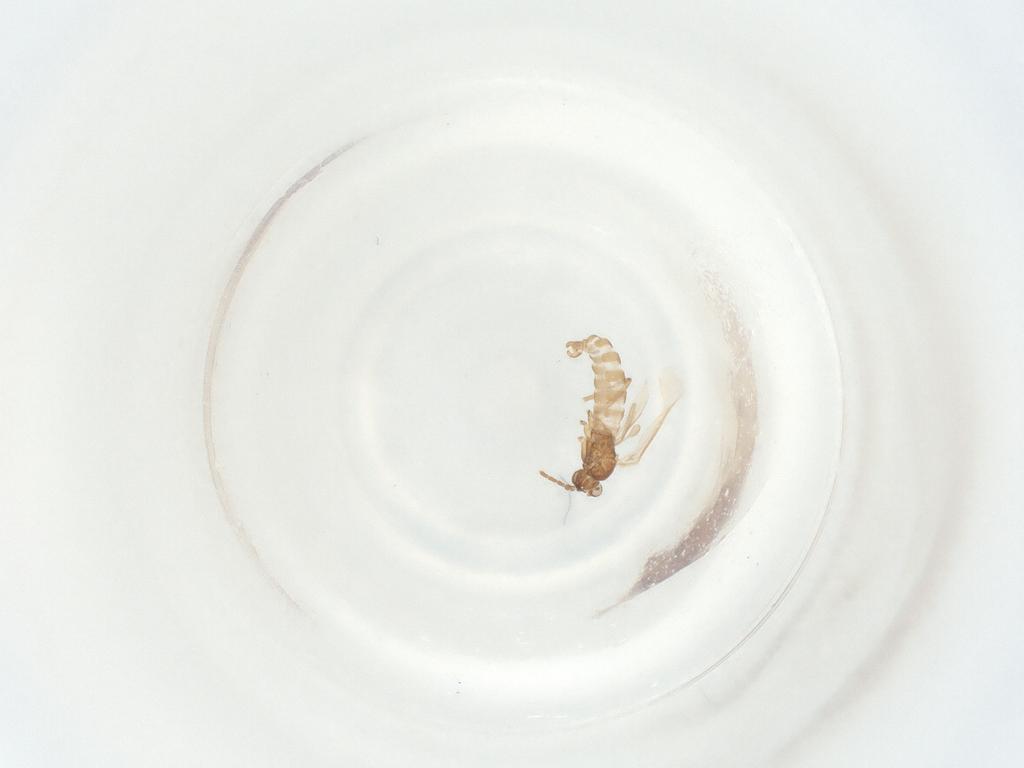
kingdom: Animalia
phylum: Arthropoda
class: Insecta
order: Diptera
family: Sciaridae
